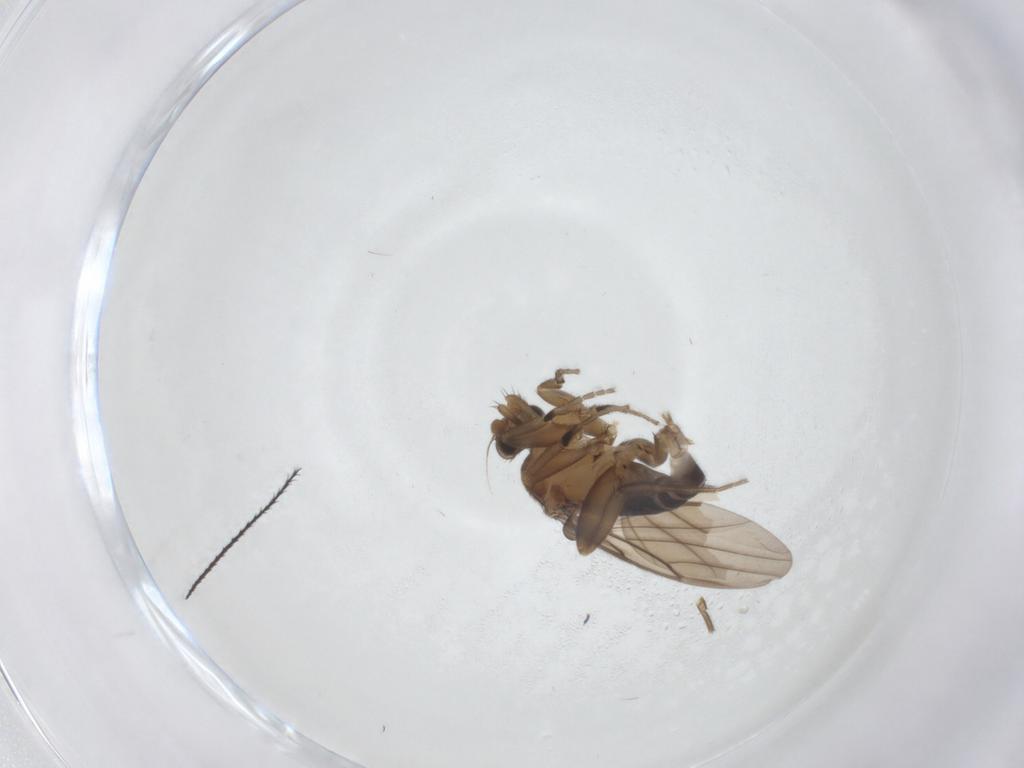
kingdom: Animalia
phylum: Arthropoda
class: Insecta
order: Diptera
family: Phoridae
